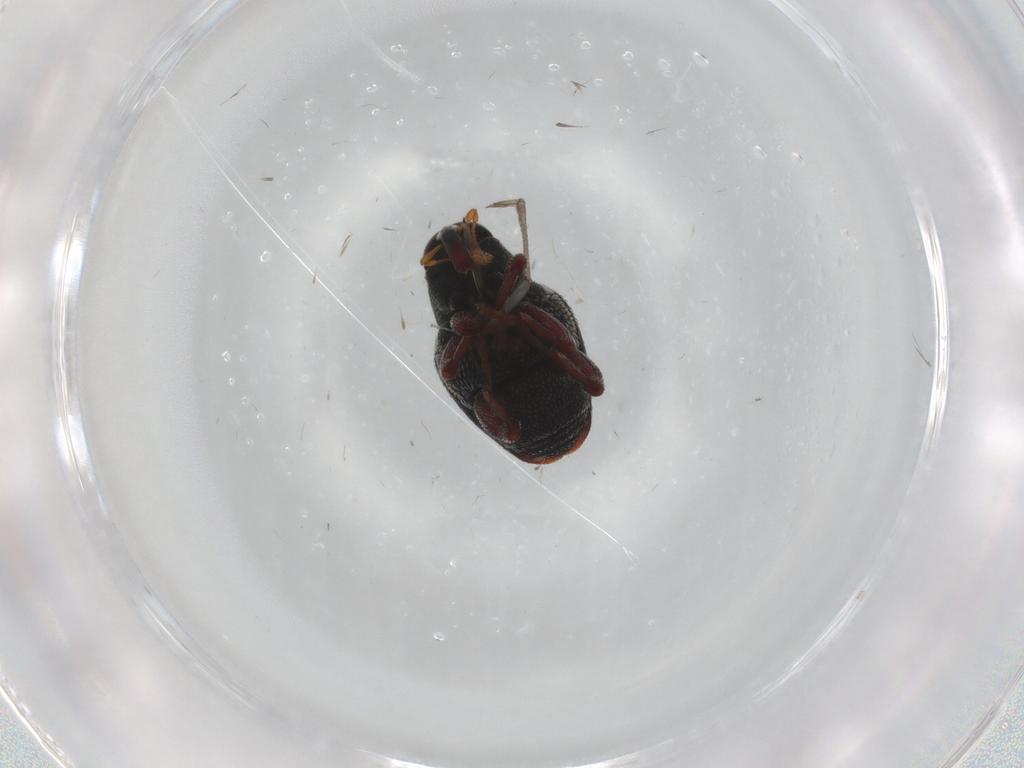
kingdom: Animalia
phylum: Arthropoda
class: Insecta
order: Coleoptera
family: Curculionidae
